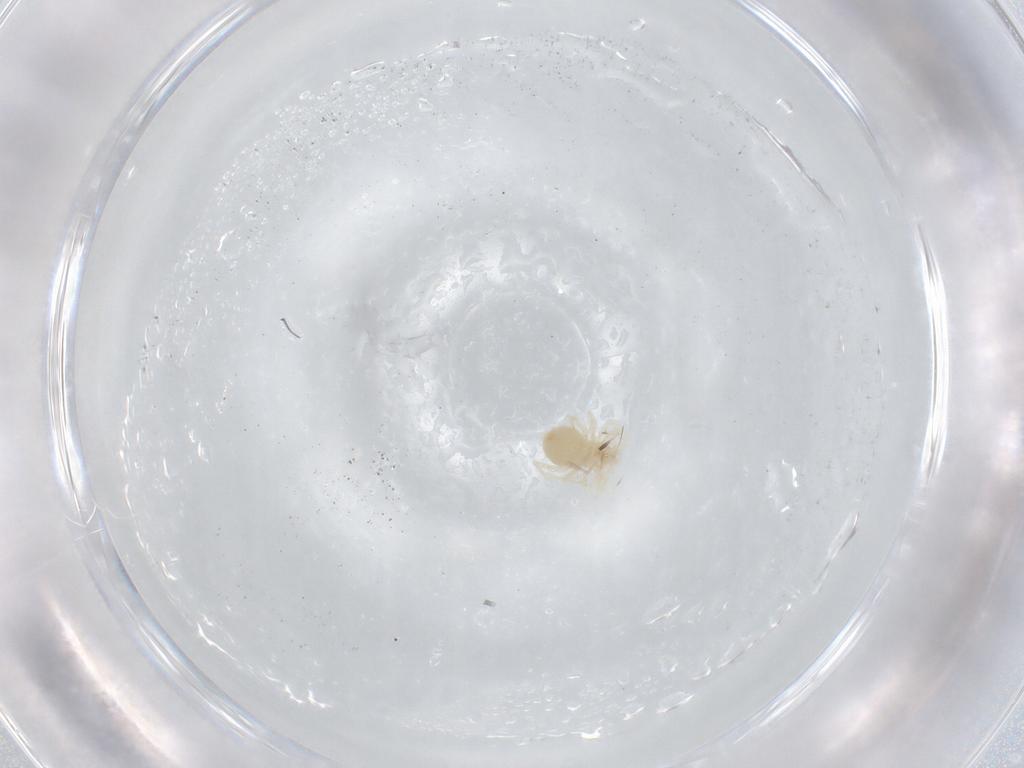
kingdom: Animalia
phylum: Arthropoda
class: Arachnida
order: Trombidiformes
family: Anystidae
